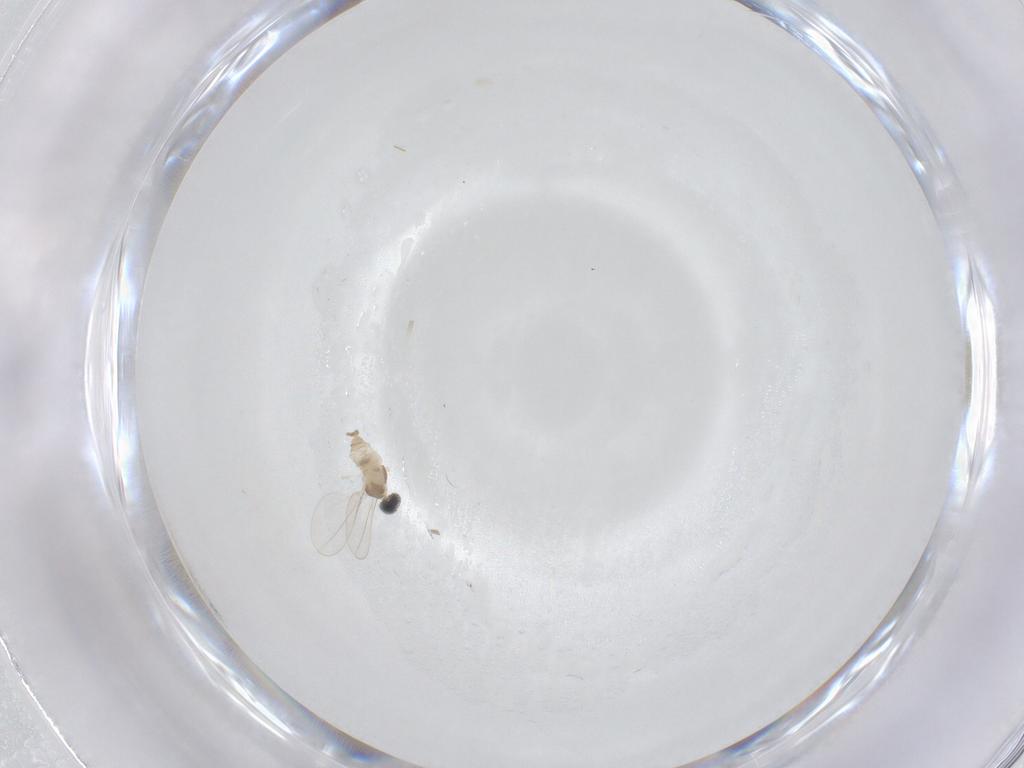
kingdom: Animalia
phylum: Arthropoda
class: Insecta
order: Diptera
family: Cecidomyiidae
